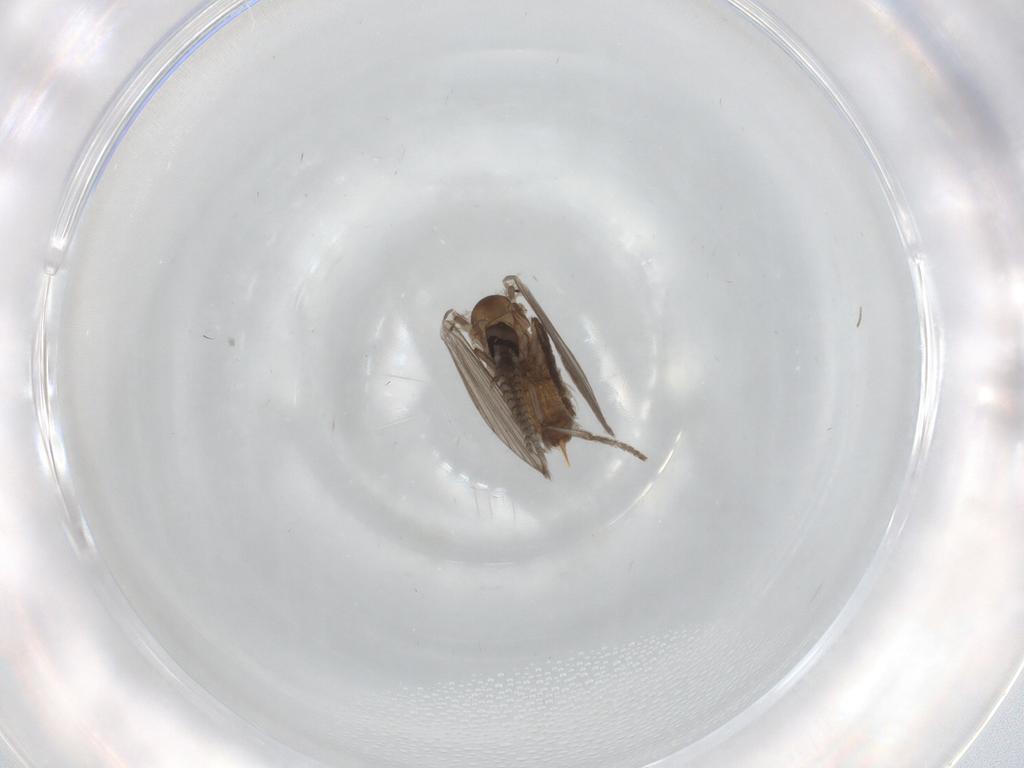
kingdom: Animalia
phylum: Arthropoda
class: Insecta
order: Diptera
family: Psychodidae
